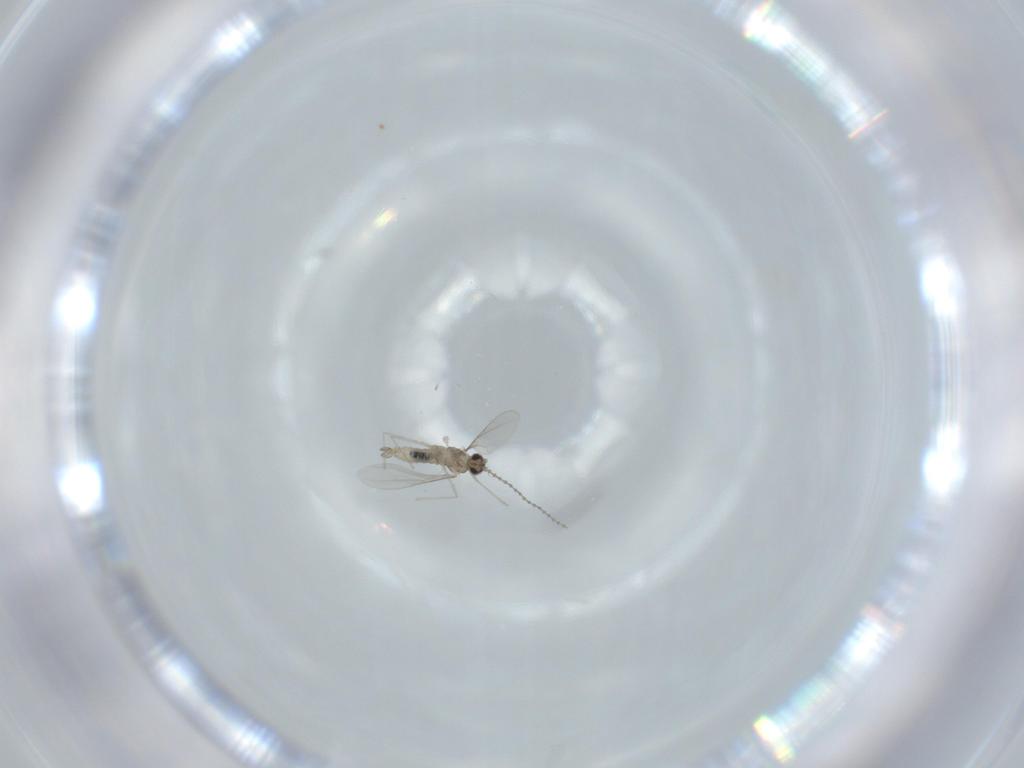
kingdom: Animalia
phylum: Arthropoda
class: Insecta
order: Diptera
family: Cecidomyiidae
